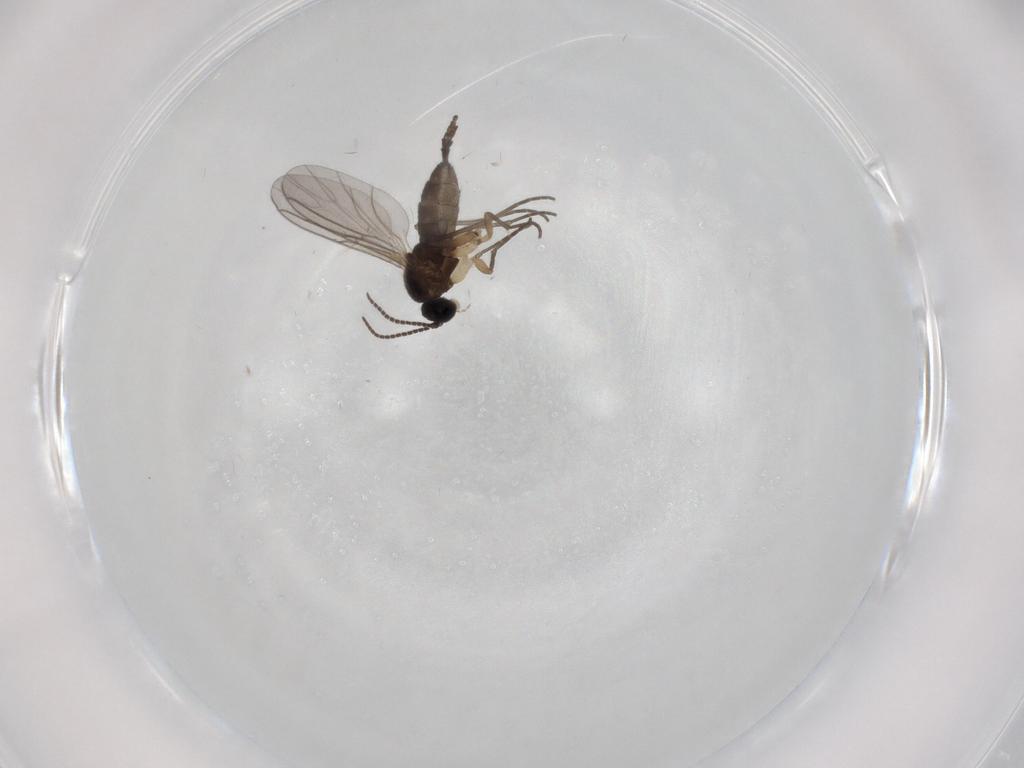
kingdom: Animalia
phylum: Arthropoda
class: Insecta
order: Diptera
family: Sciaridae
